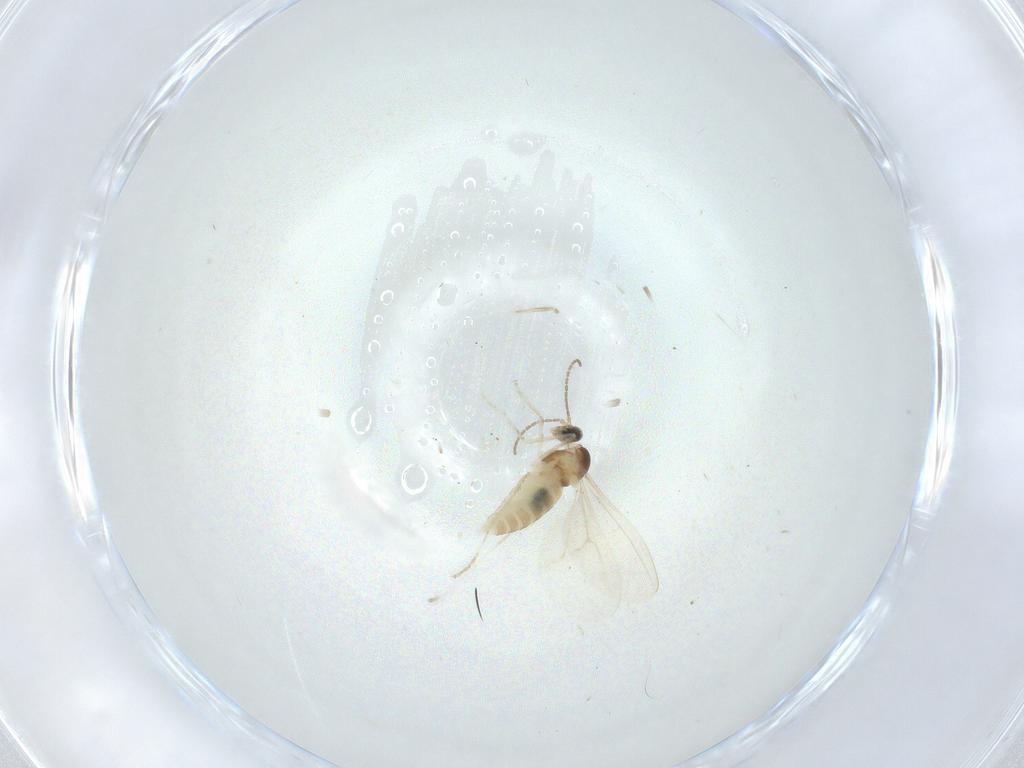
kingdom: Animalia
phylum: Arthropoda
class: Insecta
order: Diptera
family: Cecidomyiidae
